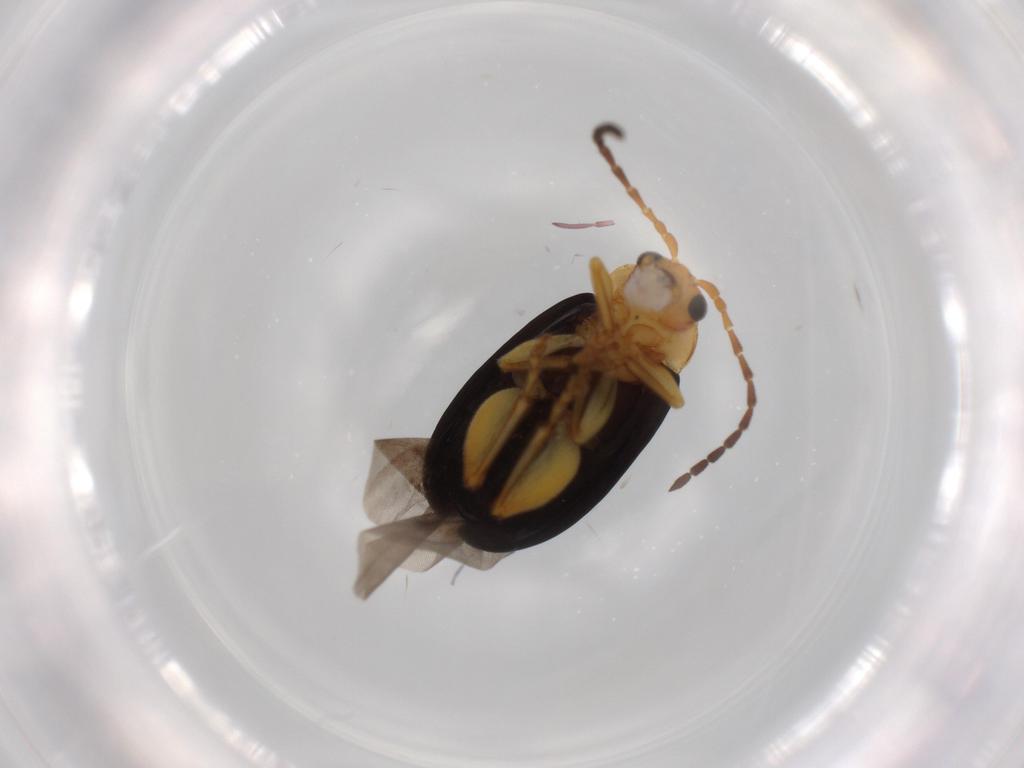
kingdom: Animalia
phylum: Arthropoda
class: Insecta
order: Coleoptera
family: Chrysomelidae
